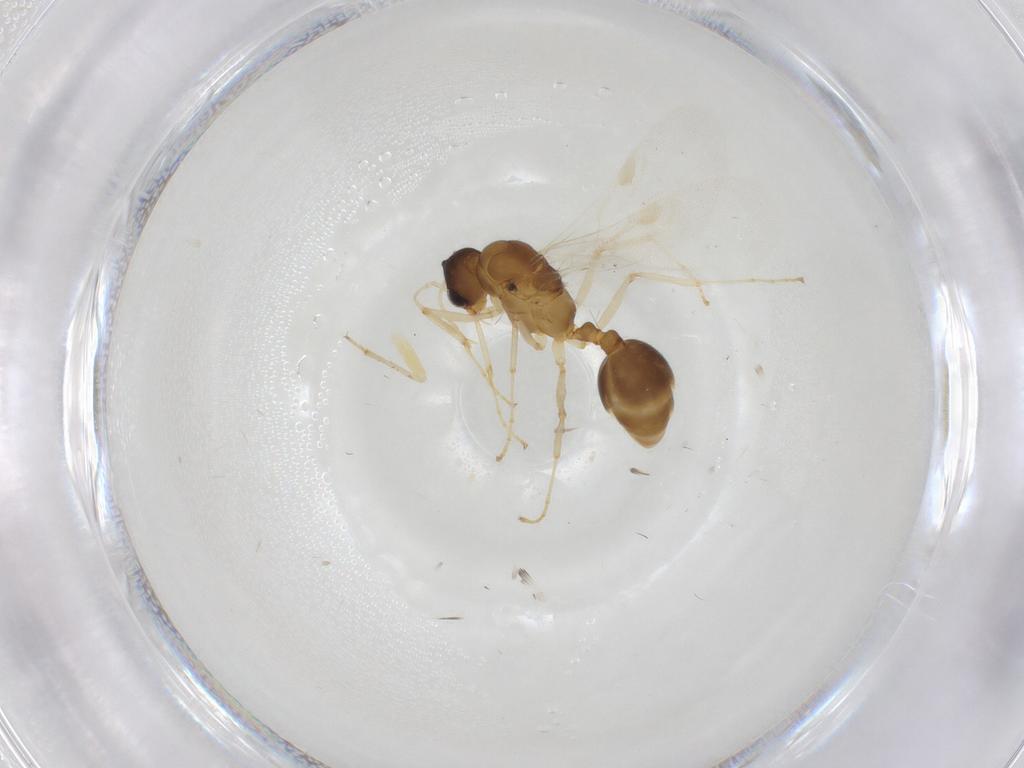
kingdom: Animalia
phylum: Arthropoda
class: Insecta
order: Hymenoptera
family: Formicidae
